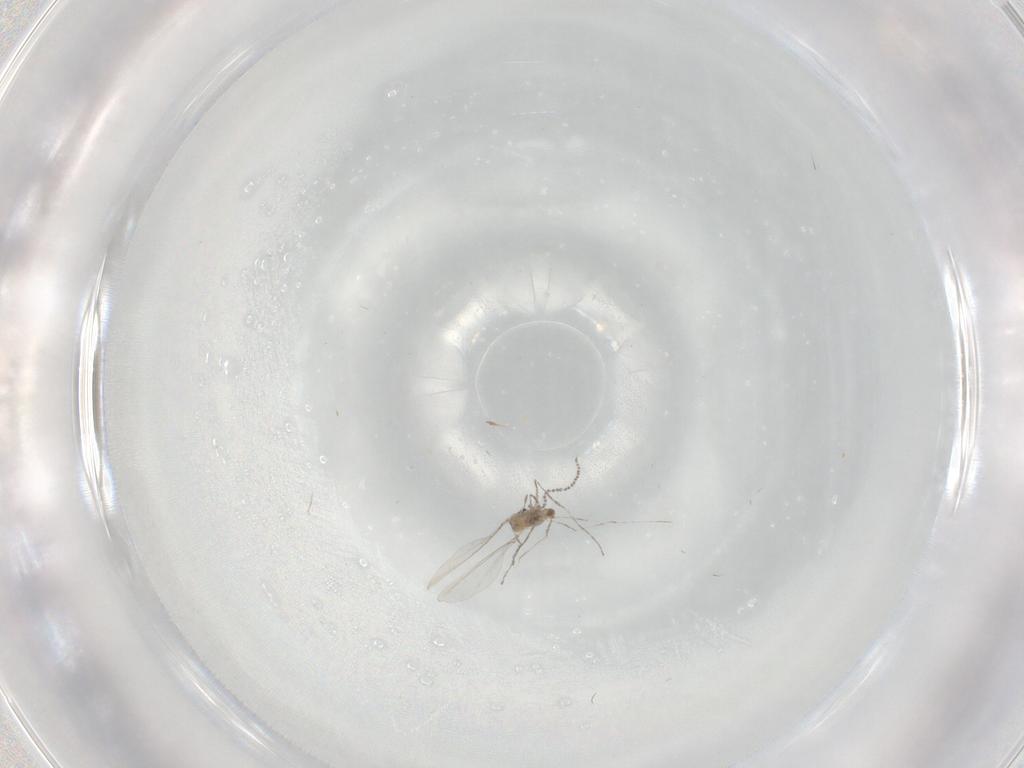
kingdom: Animalia
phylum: Arthropoda
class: Insecta
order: Diptera
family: Cecidomyiidae
